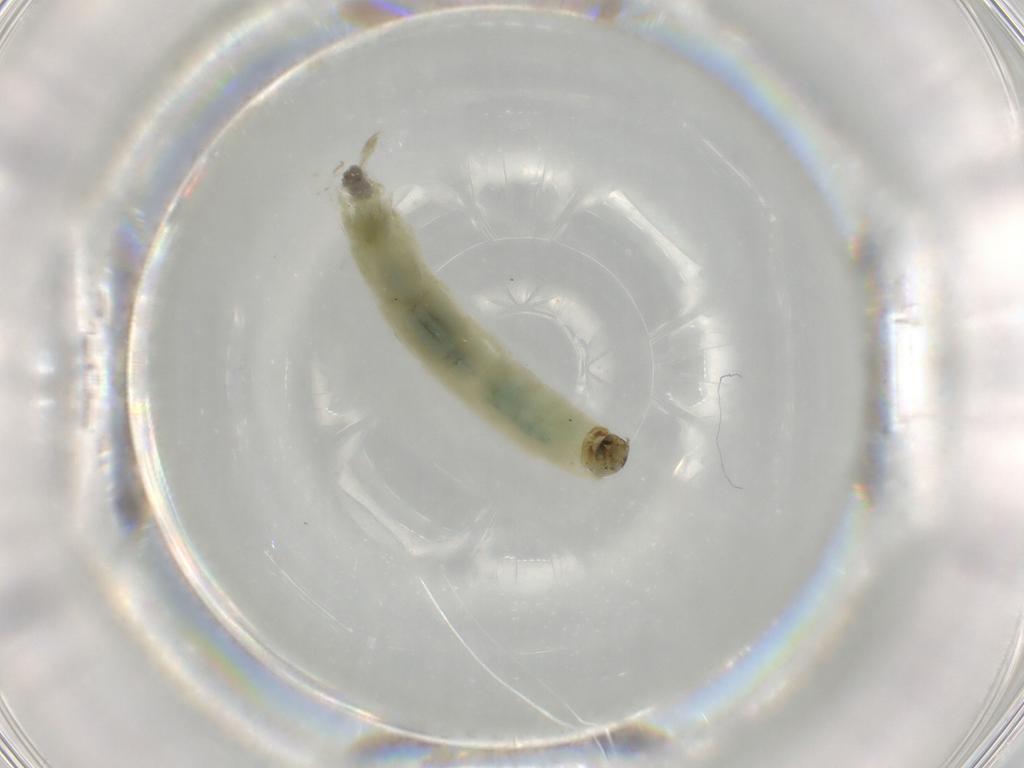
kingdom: Animalia
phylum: Arthropoda
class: Insecta
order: Diptera
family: Chironomidae
